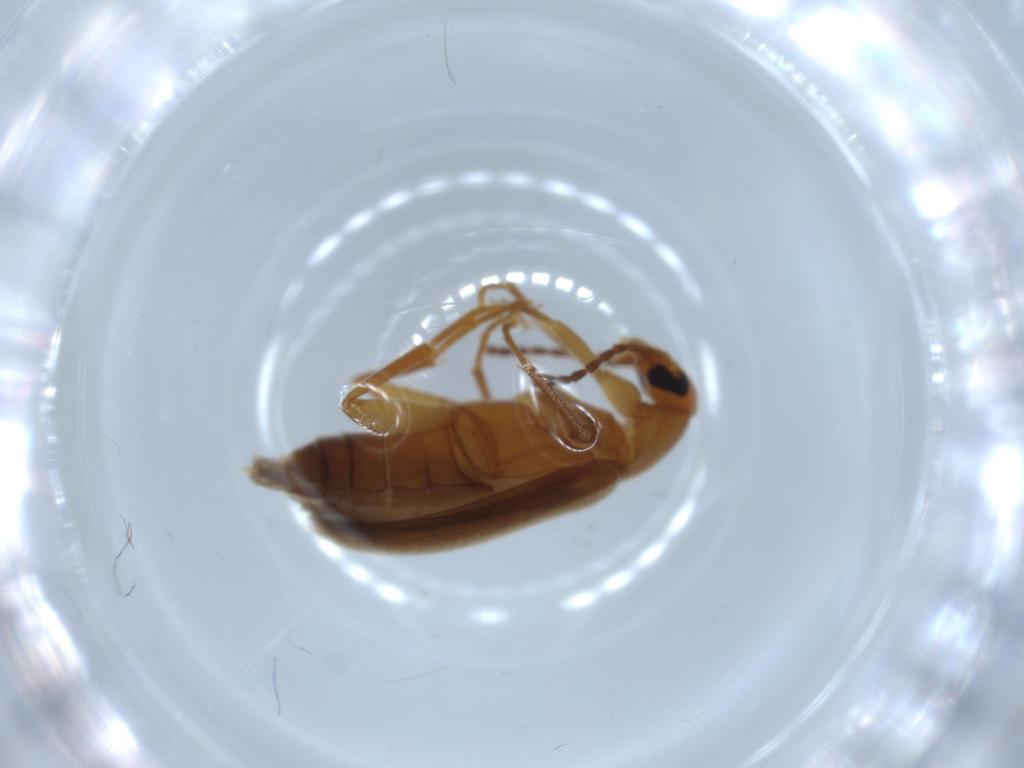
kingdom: Animalia
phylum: Arthropoda
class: Insecta
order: Coleoptera
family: Scraptiidae
